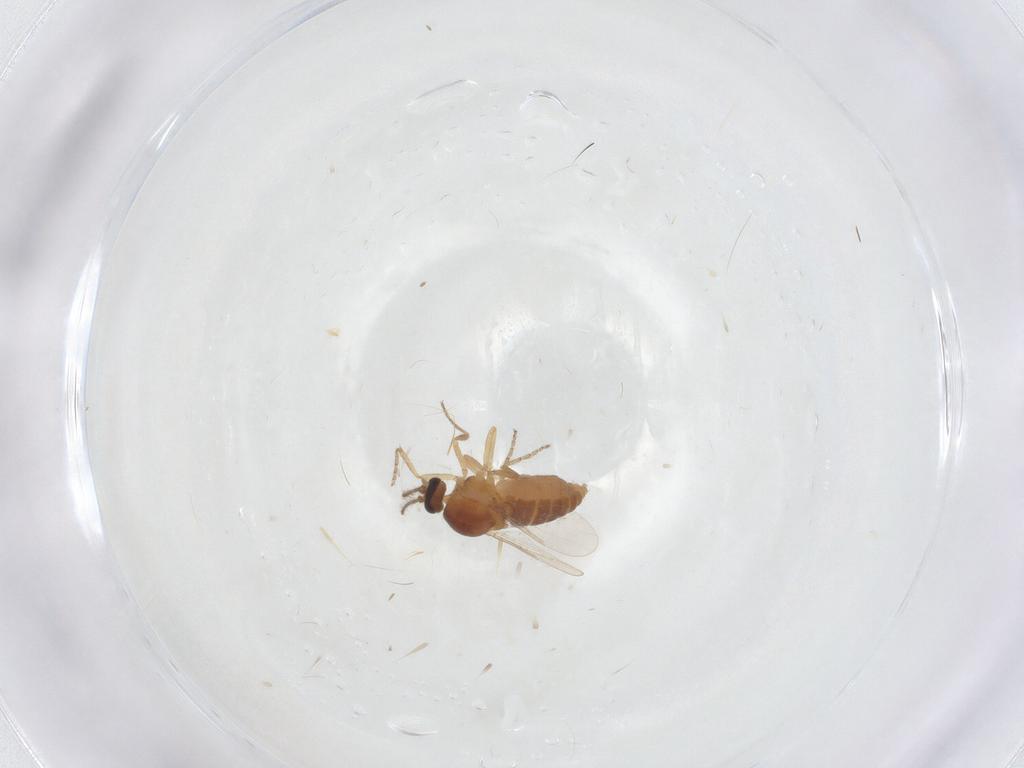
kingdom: Animalia
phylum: Arthropoda
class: Insecta
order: Diptera
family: Ceratopogonidae
